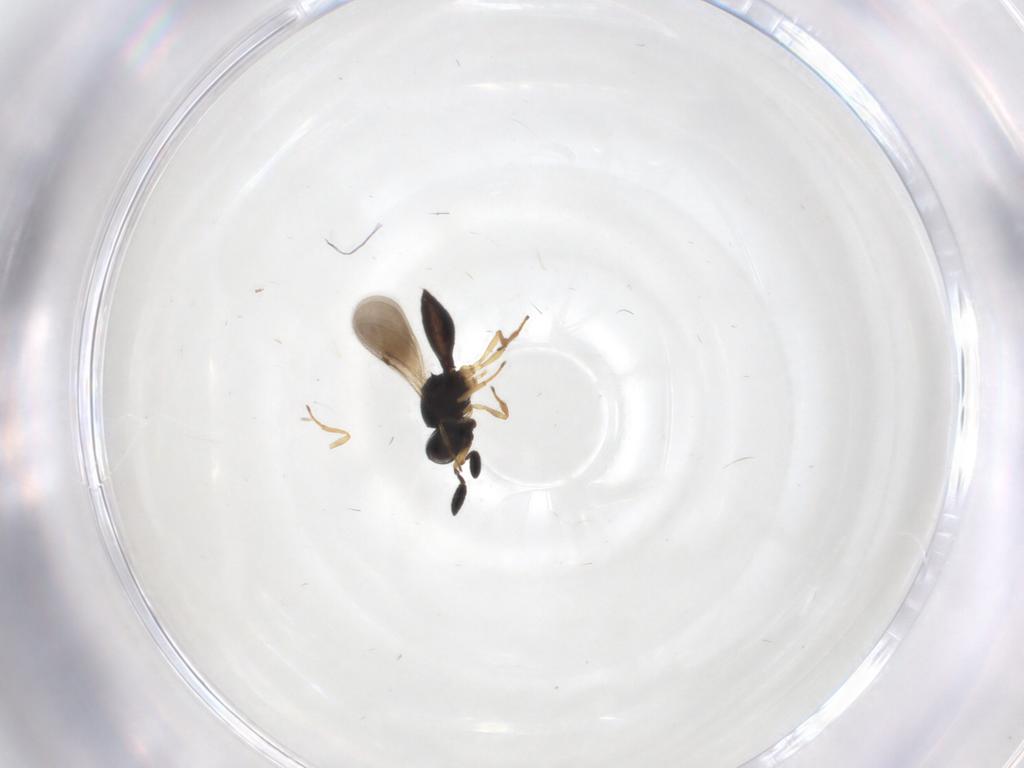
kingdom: Animalia
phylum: Arthropoda
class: Insecta
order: Hymenoptera
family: Scelionidae
